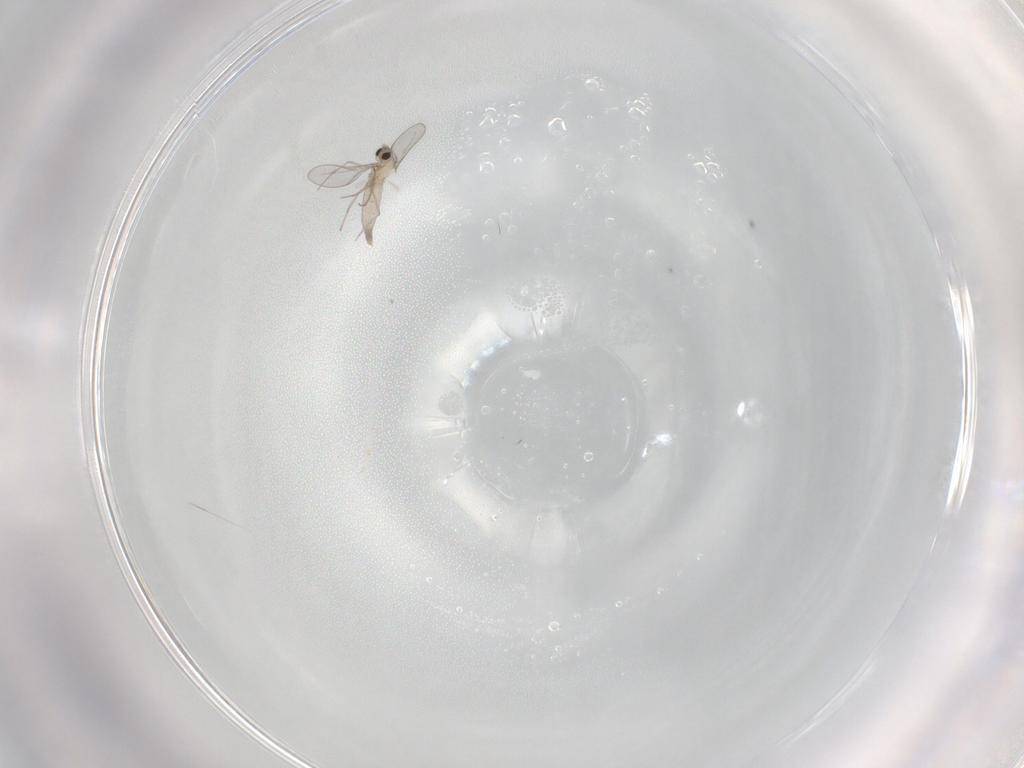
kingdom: Animalia
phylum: Arthropoda
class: Insecta
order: Diptera
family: Cecidomyiidae
